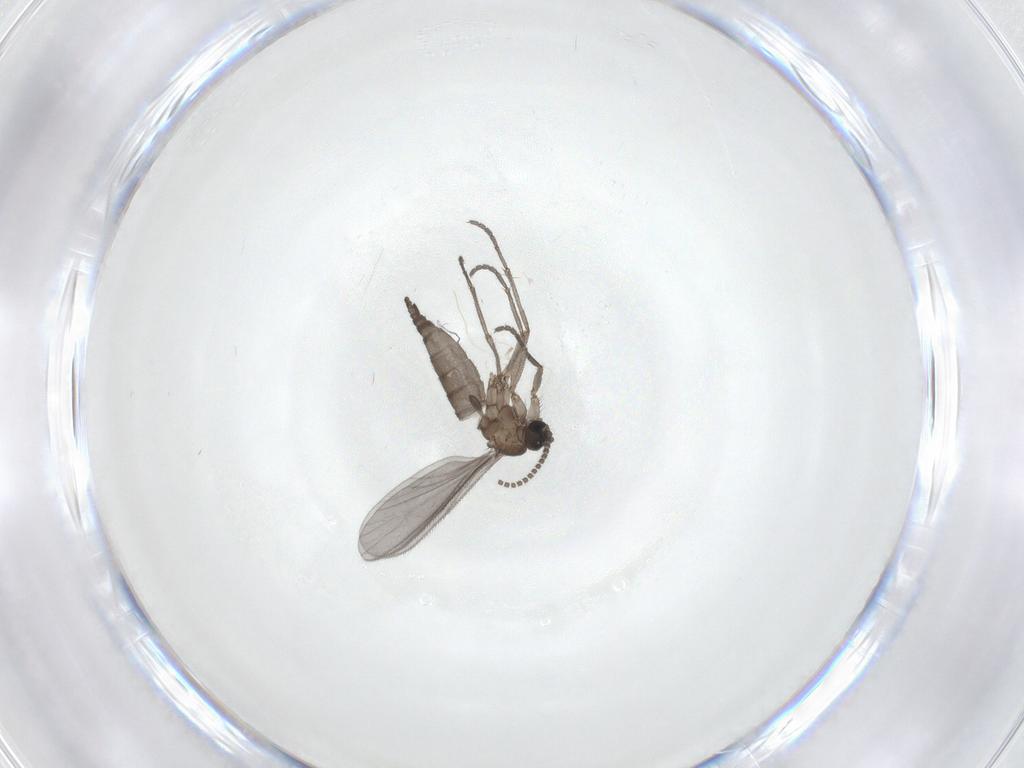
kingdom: Animalia
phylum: Arthropoda
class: Insecta
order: Diptera
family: Sciaridae
